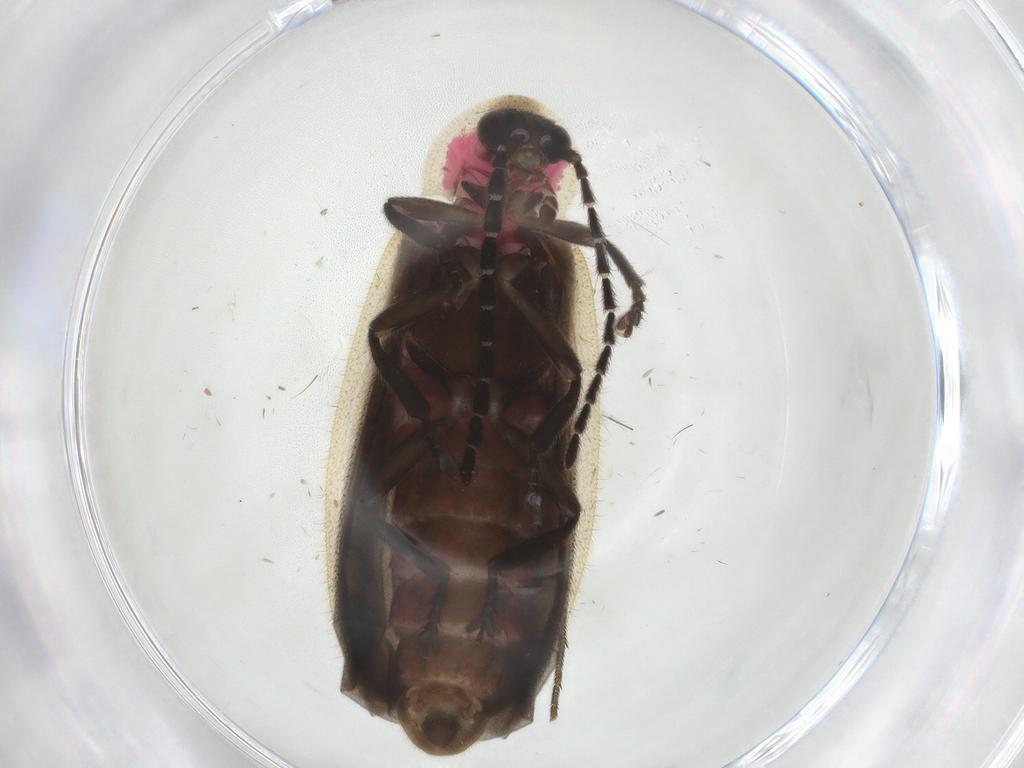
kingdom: Animalia
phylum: Arthropoda
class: Insecta
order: Coleoptera
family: Lampyridae
